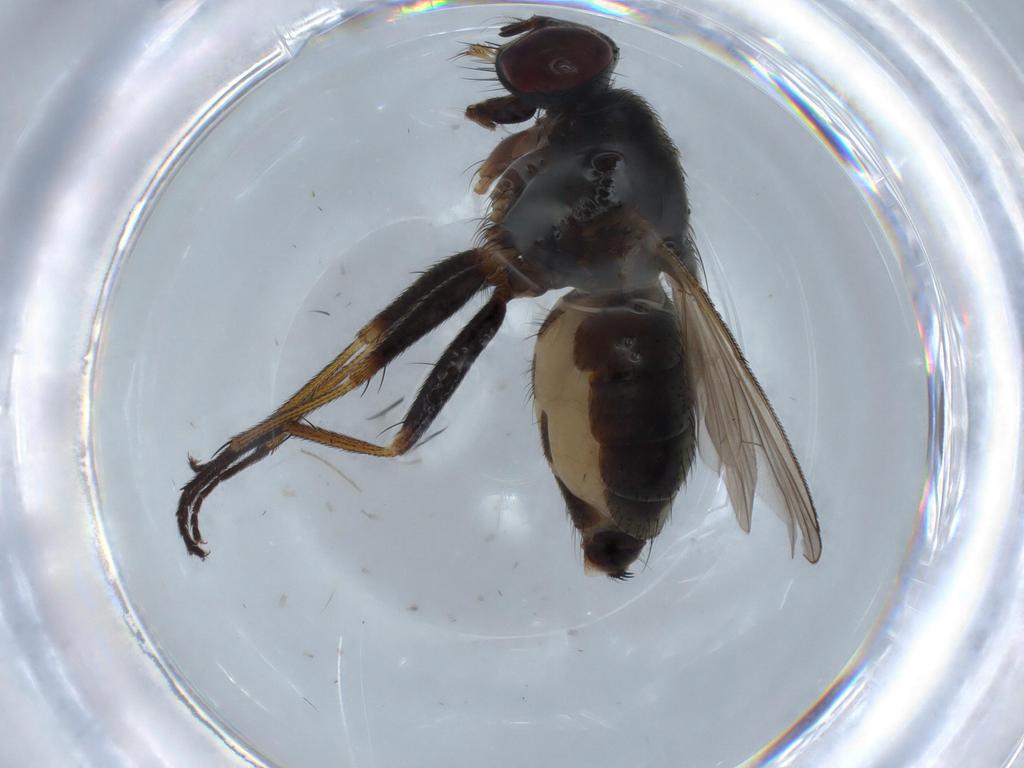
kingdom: Animalia
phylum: Arthropoda
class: Insecta
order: Diptera
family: Muscidae
